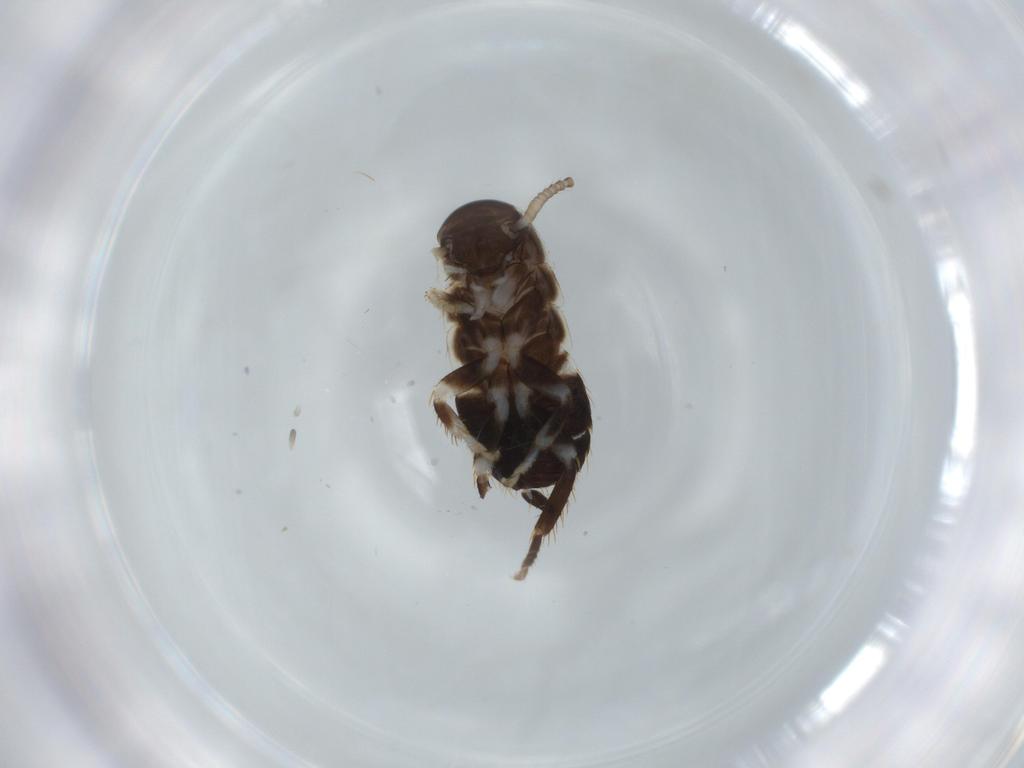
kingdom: Animalia
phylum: Arthropoda
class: Insecta
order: Blattodea
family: Ectobiidae
